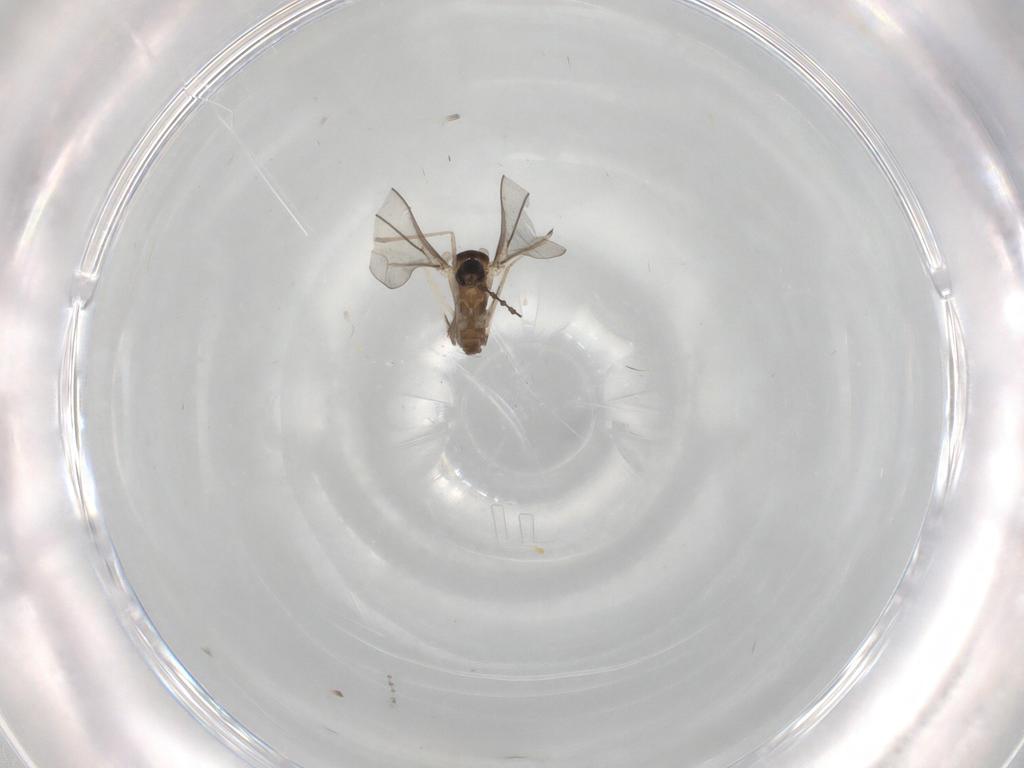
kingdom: Animalia
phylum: Arthropoda
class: Insecta
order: Diptera
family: Cecidomyiidae
